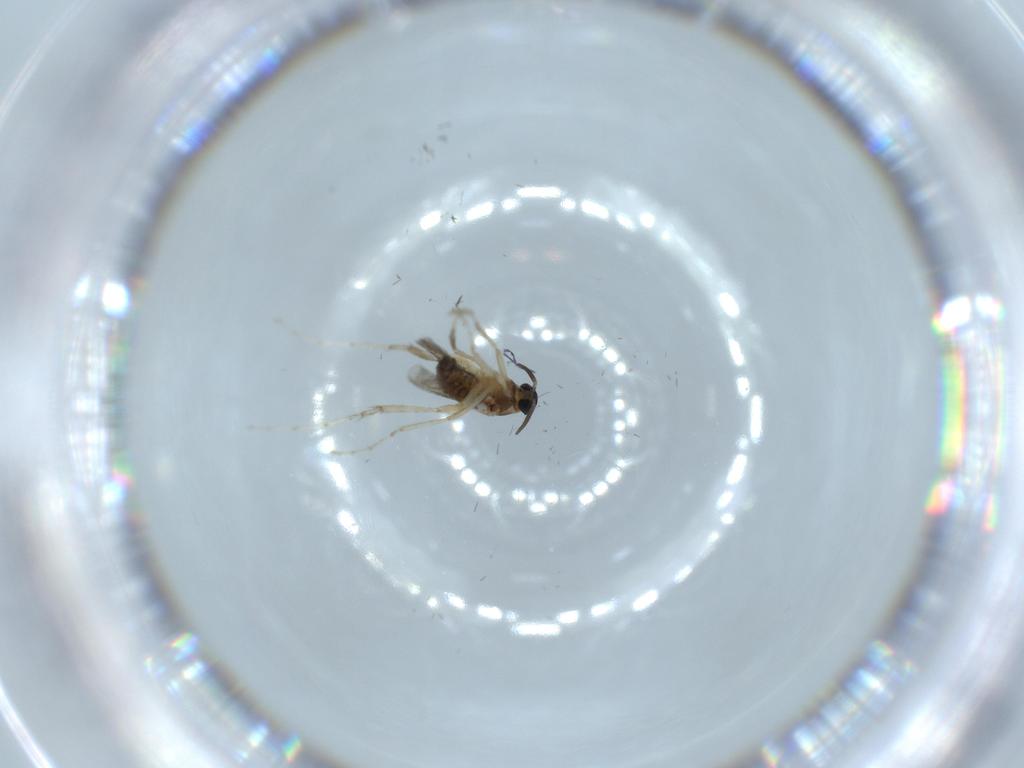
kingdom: Animalia
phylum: Arthropoda
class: Insecta
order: Diptera
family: Cecidomyiidae
